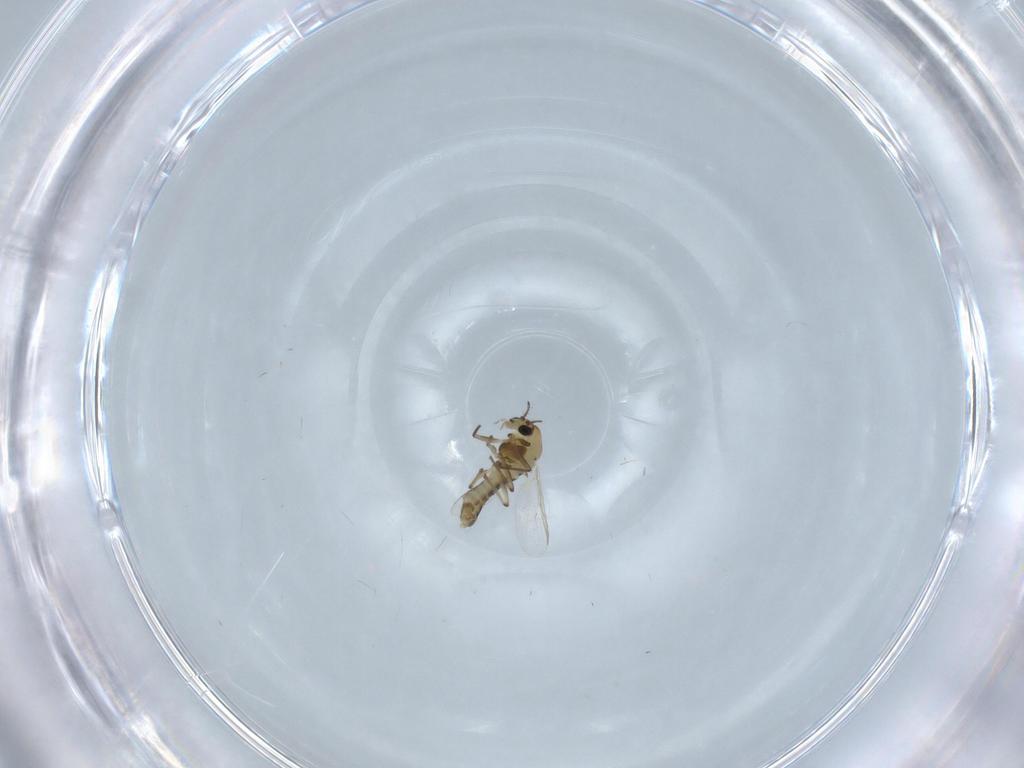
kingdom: Animalia
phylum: Arthropoda
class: Insecta
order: Diptera
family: Chironomidae
